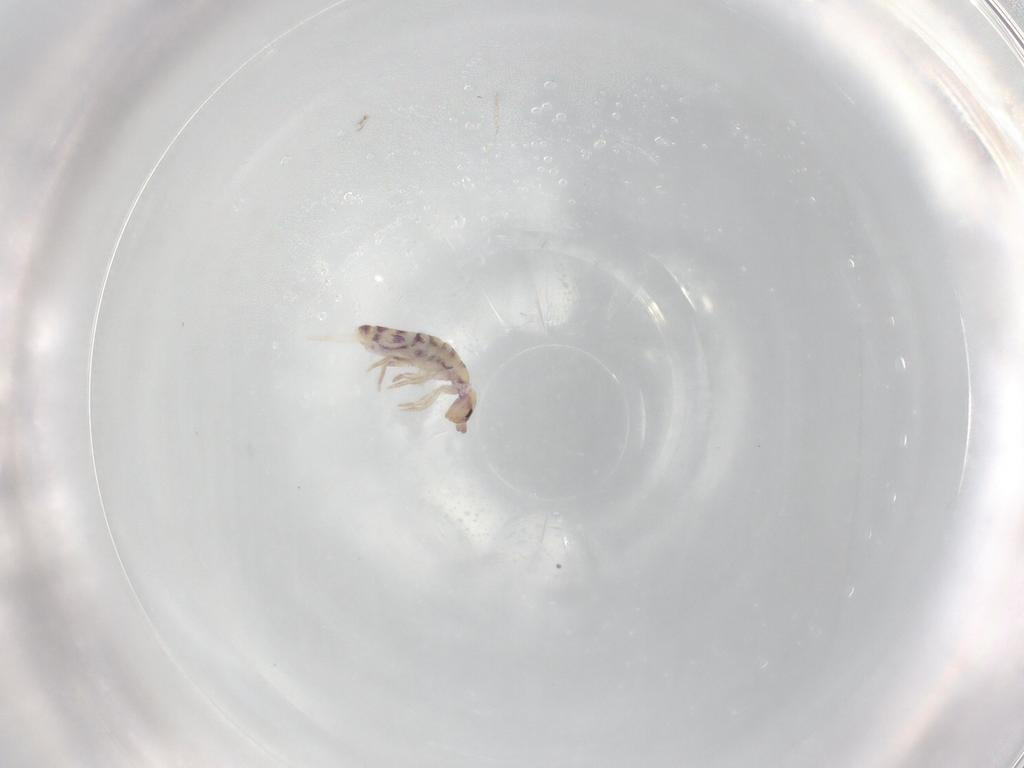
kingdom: Animalia
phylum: Arthropoda
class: Collembola
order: Entomobryomorpha
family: Entomobryidae
